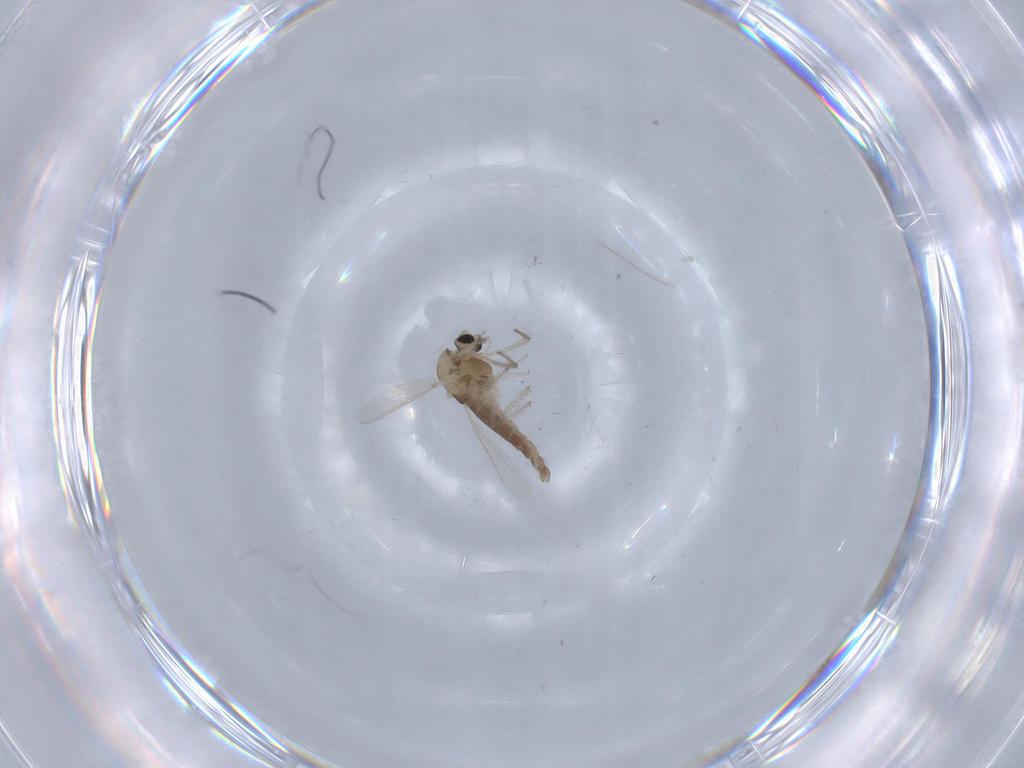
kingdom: Animalia
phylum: Arthropoda
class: Insecta
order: Diptera
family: Chironomidae
